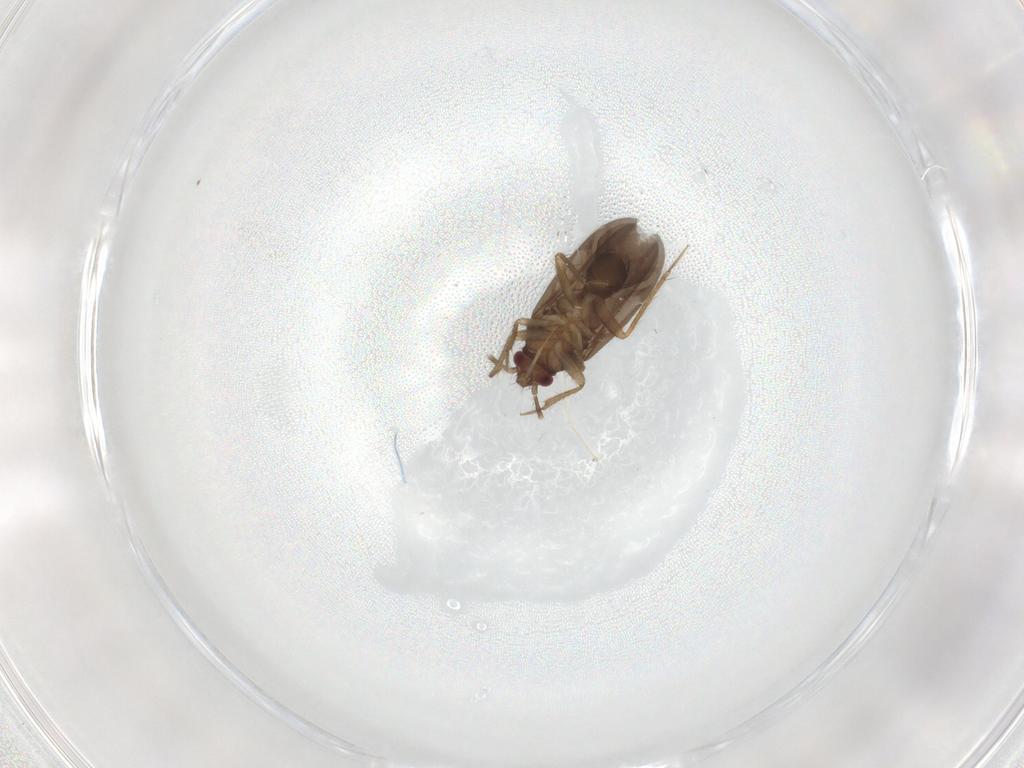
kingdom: Animalia
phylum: Arthropoda
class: Insecta
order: Hemiptera
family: Ceratocombidae
